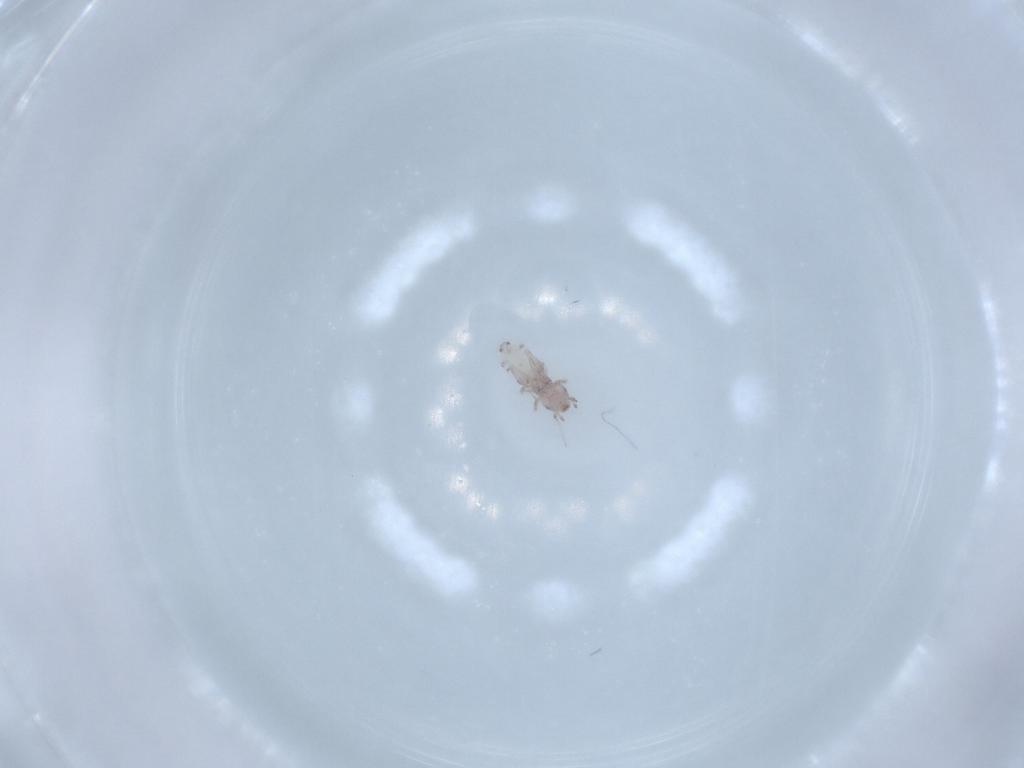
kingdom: Animalia
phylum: Arthropoda
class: Insecta
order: Psocodea
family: Liposcelididae
